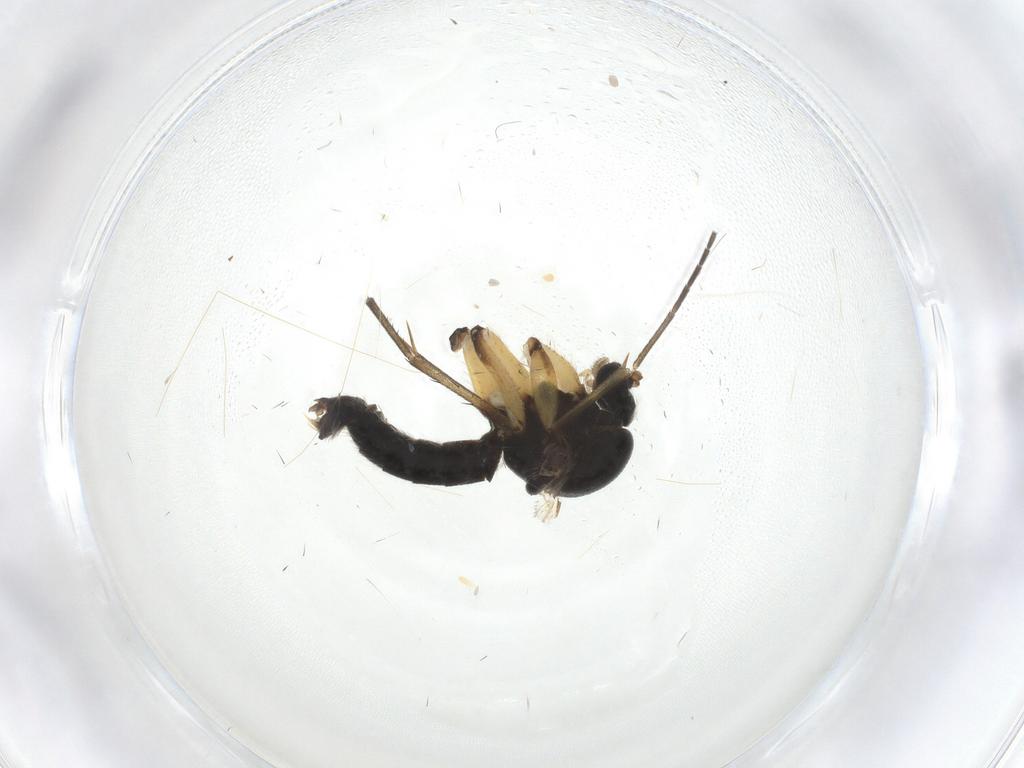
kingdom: Animalia
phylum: Arthropoda
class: Insecta
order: Diptera
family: Agromyzidae
